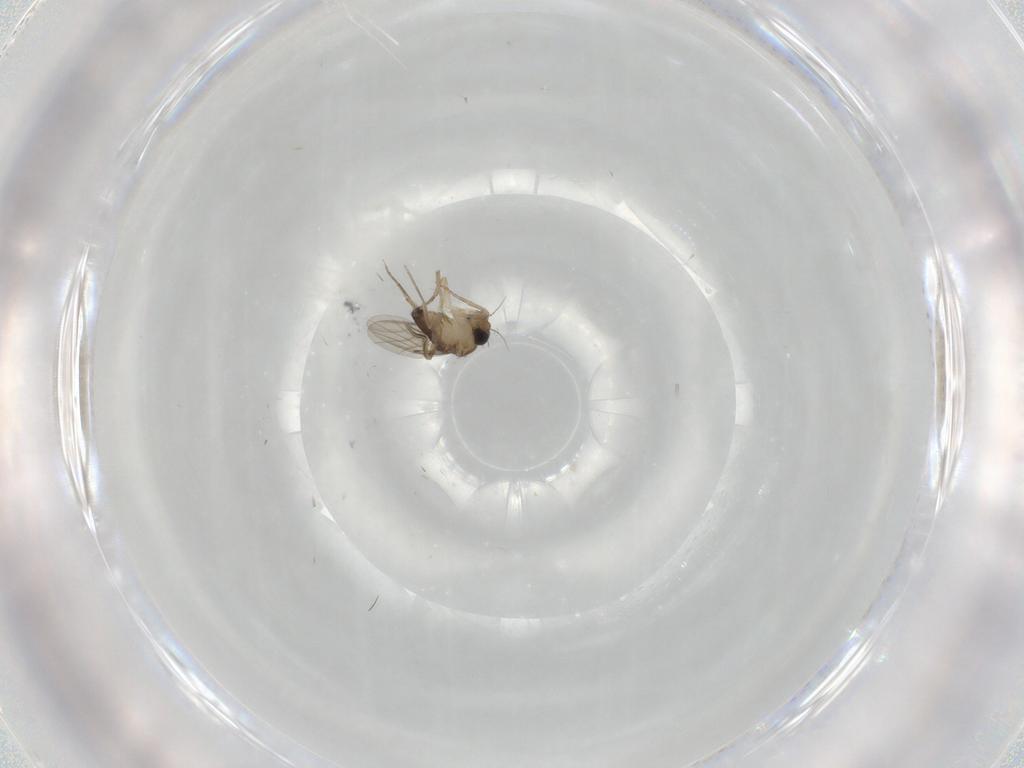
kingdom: Animalia
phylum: Arthropoda
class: Insecta
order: Diptera
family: Phoridae
